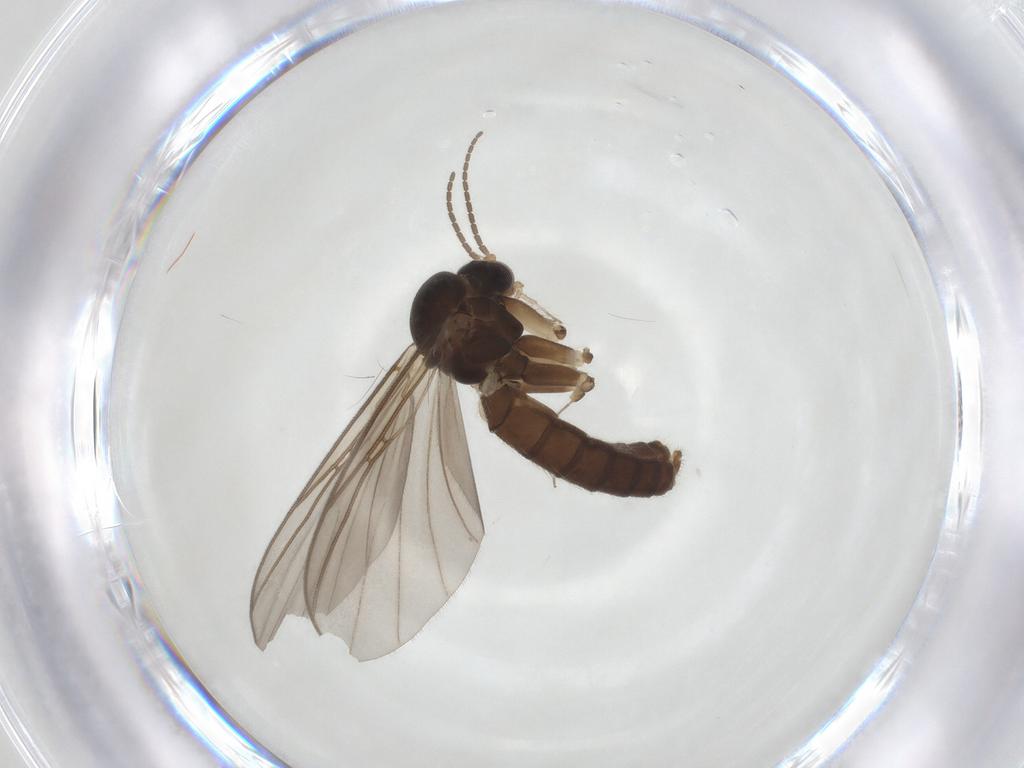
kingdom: Animalia
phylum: Arthropoda
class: Insecta
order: Diptera
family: Chironomidae
